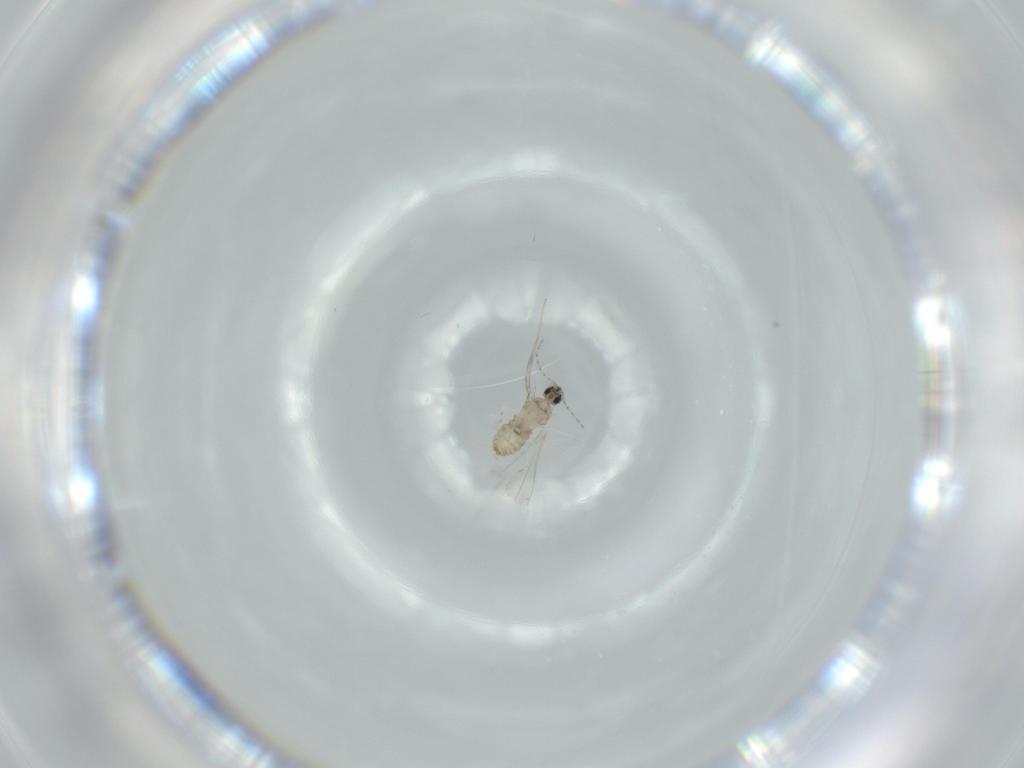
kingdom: Animalia
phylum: Arthropoda
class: Insecta
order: Diptera
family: Cecidomyiidae
